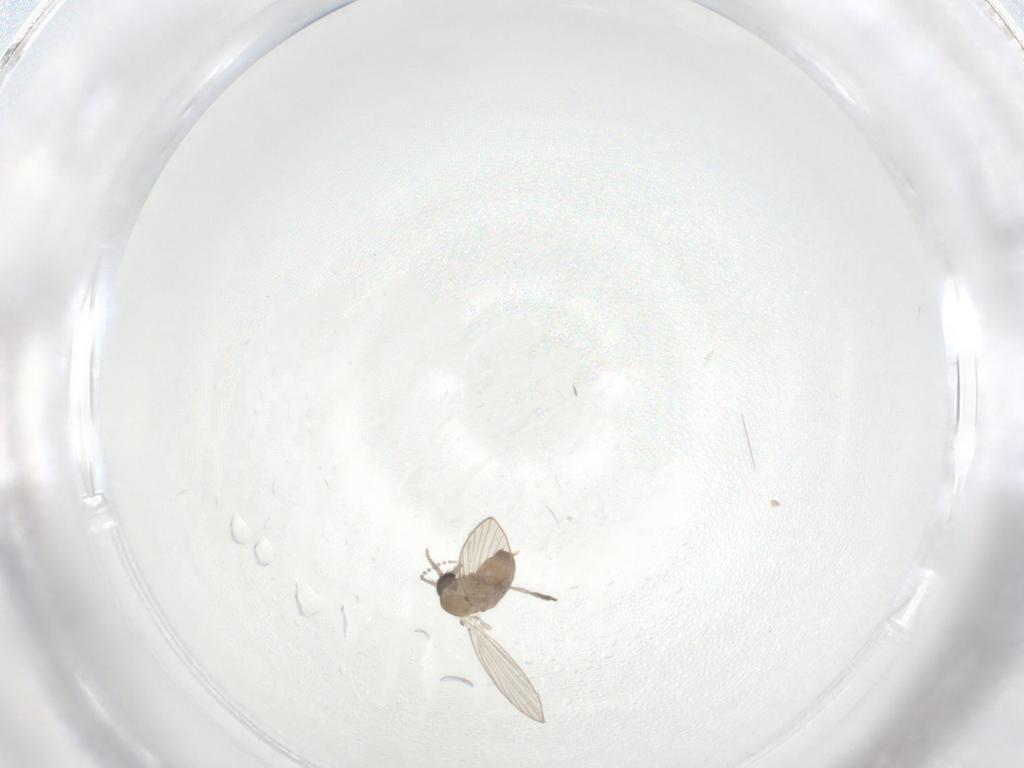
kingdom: Animalia
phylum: Arthropoda
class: Insecta
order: Diptera
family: Psychodidae
